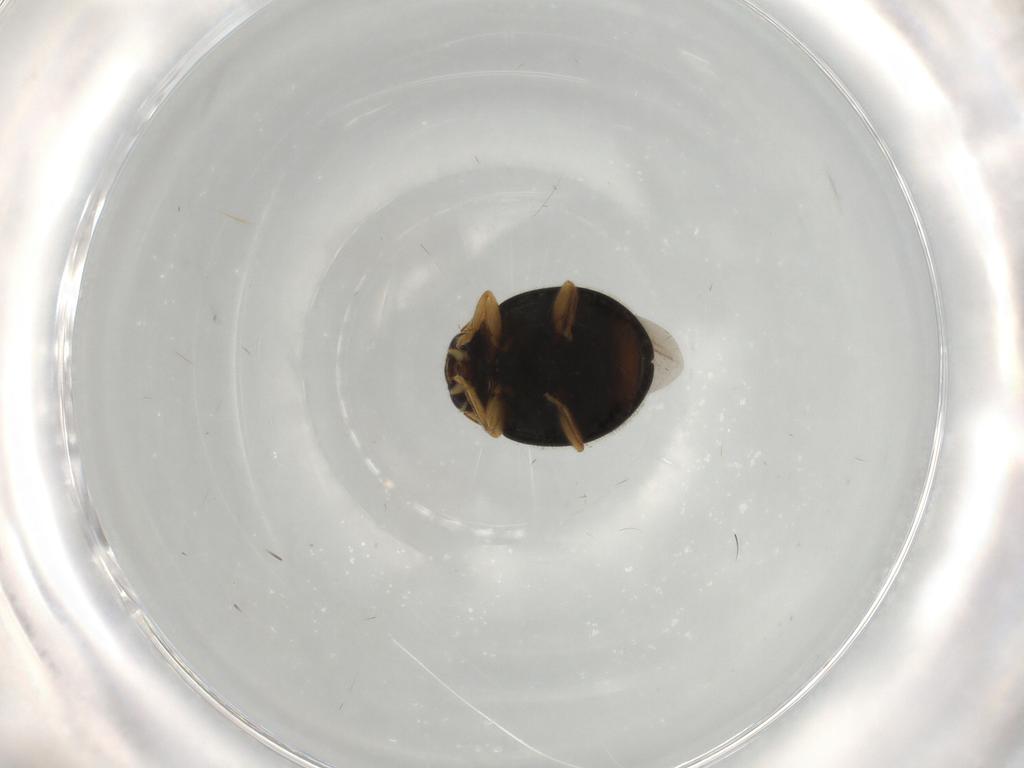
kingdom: Animalia
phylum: Arthropoda
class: Insecta
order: Coleoptera
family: Coccinellidae
